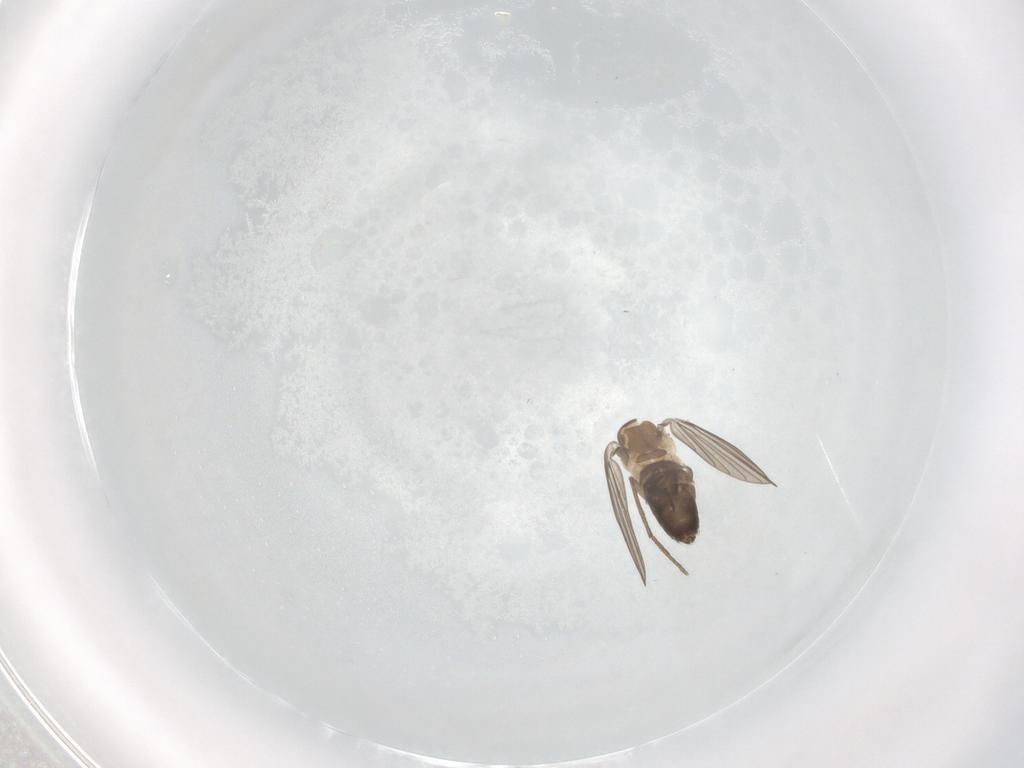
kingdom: Animalia
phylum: Arthropoda
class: Insecta
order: Diptera
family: Psychodidae
